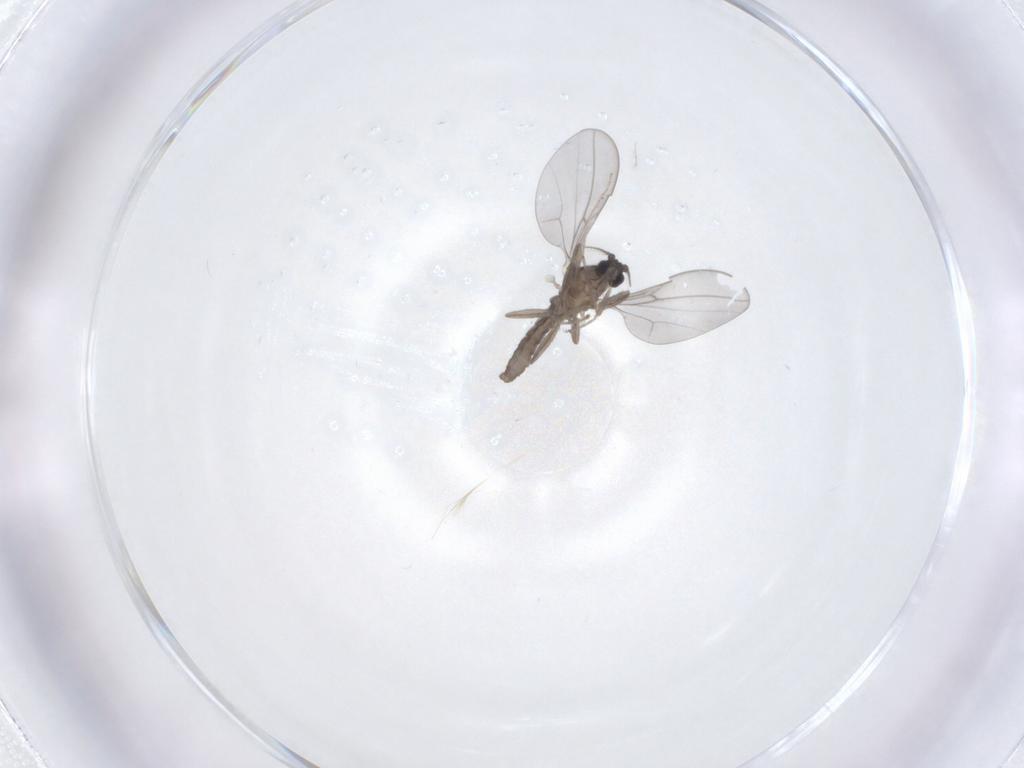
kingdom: Animalia
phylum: Arthropoda
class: Insecta
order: Diptera
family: Cecidomyiidae
